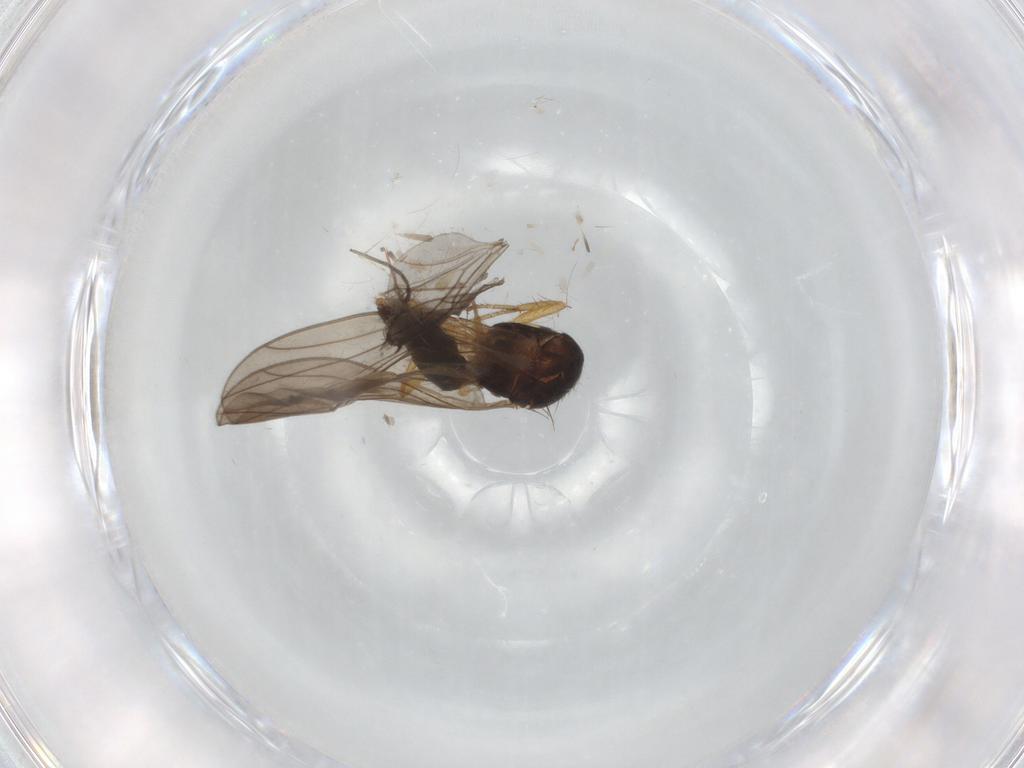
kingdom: Animalia
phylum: Arthropoda
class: Insecta
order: Diptera
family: Drosophilidae
